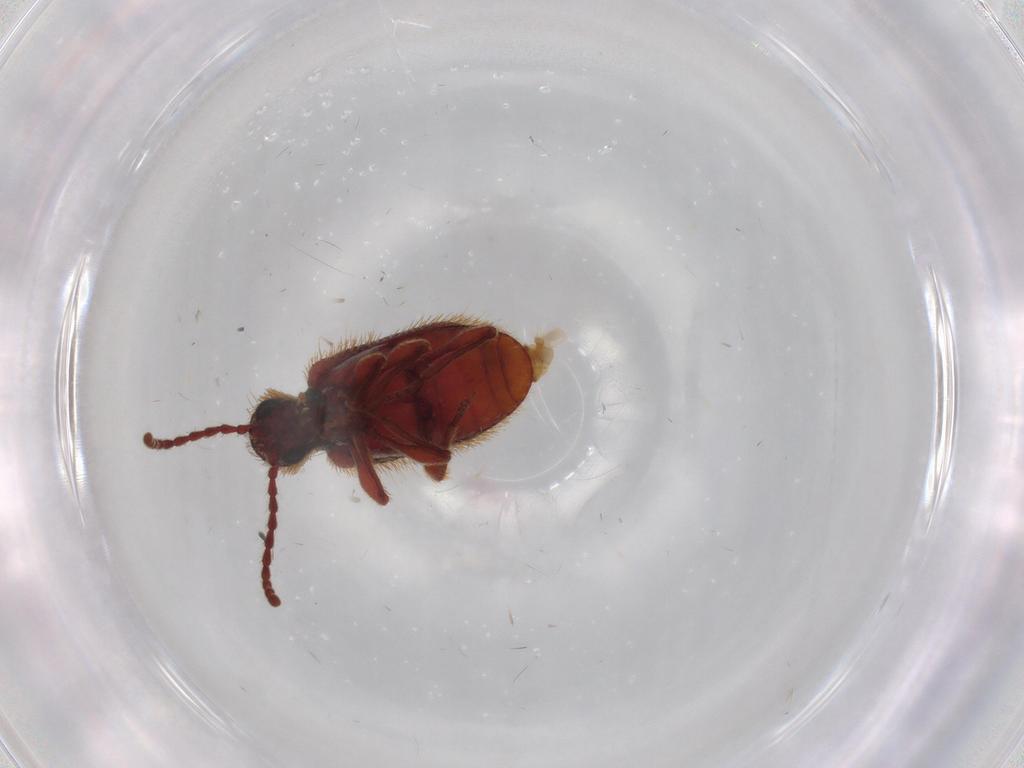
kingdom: Animalia
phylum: Arthropoda
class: Insecta
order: Coleoptera
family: Ptinidae
